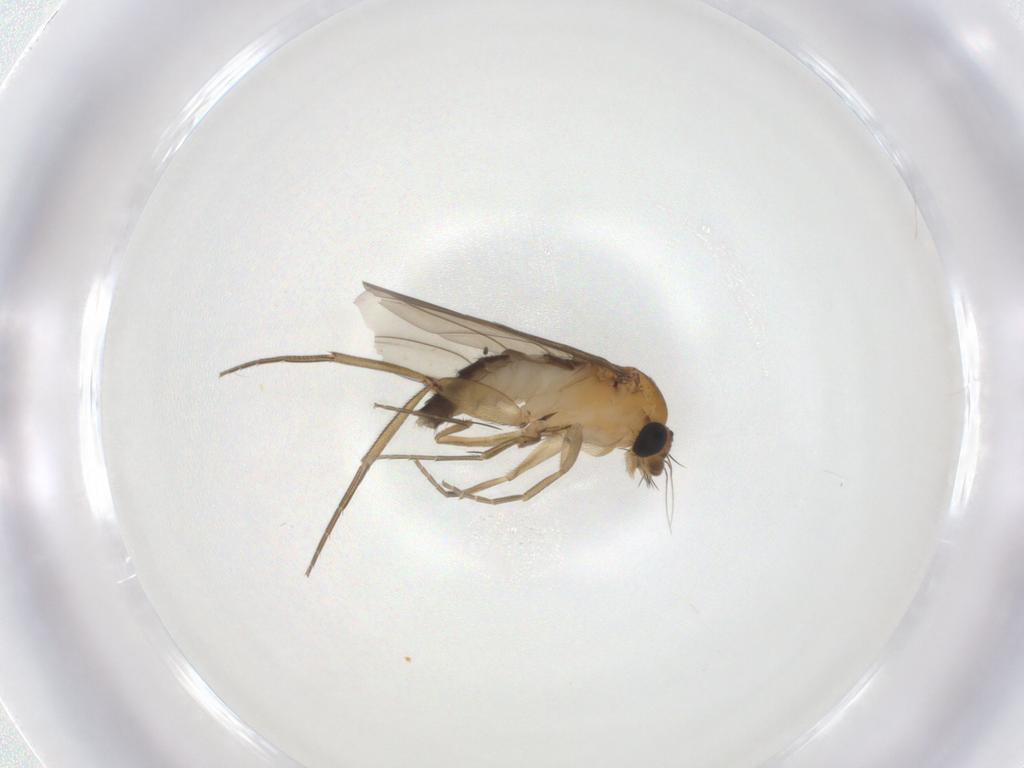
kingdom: Animalia
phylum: Arthropoda
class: Insecta
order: Diptera
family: Phoridae
